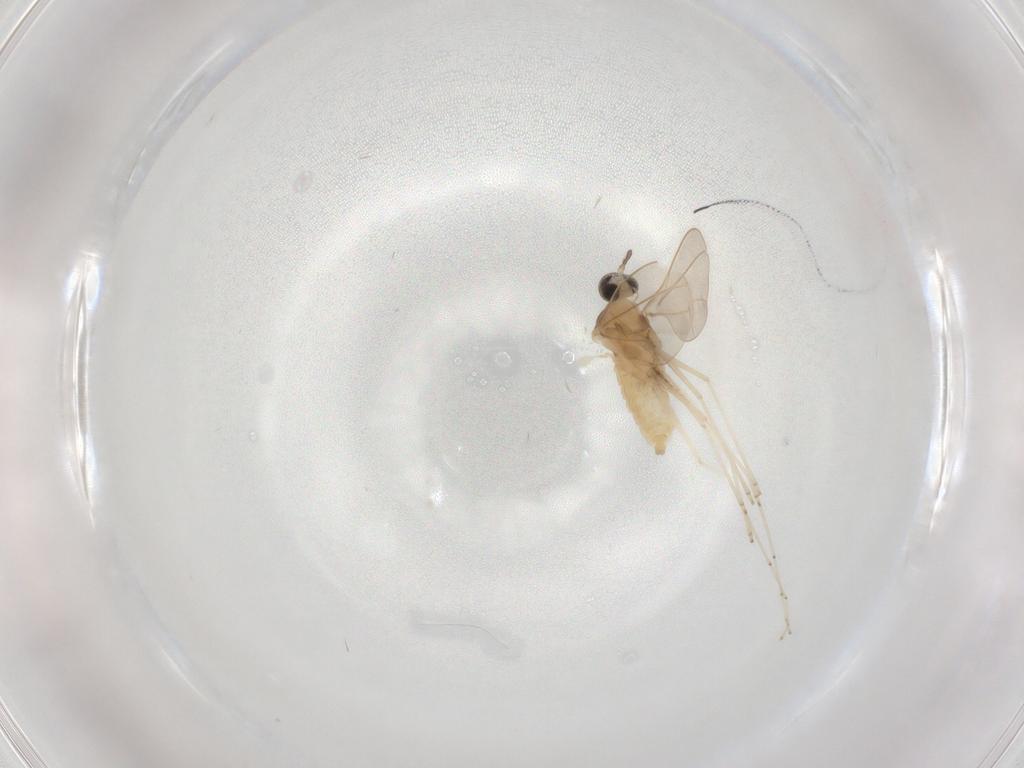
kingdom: Animalia
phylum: Arthropoda
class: Insecta
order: Diptera
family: Cecidomyiidae
